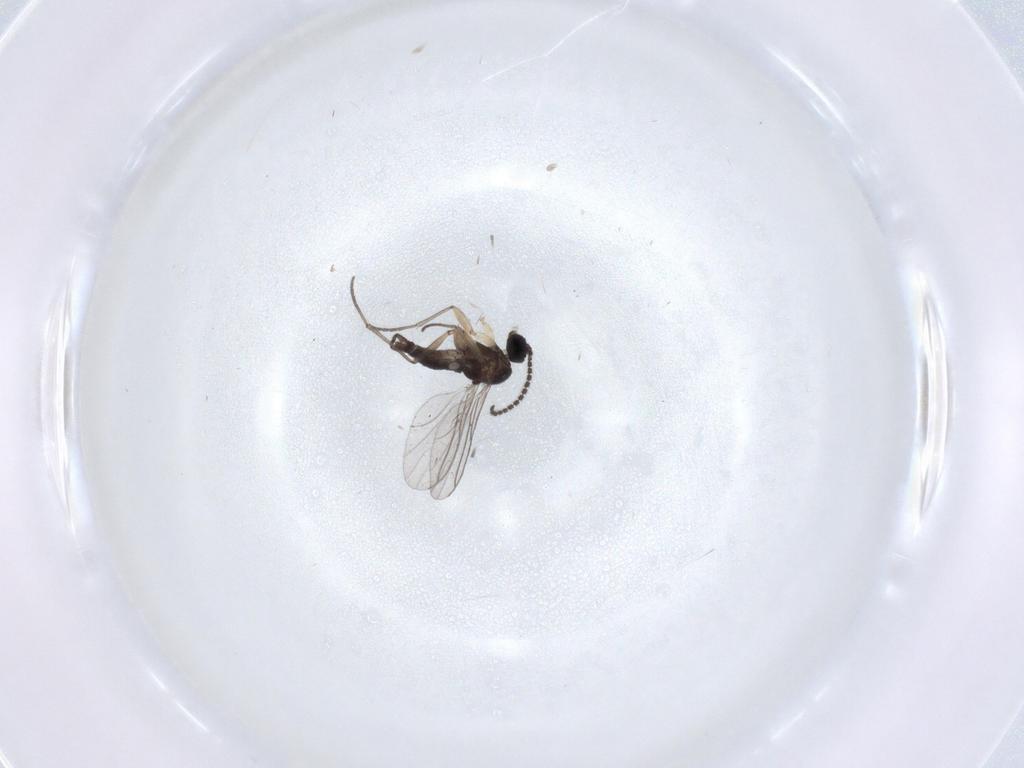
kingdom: Animalia
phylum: Arthropoda
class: Insecta
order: Diptera
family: Sciaridae
